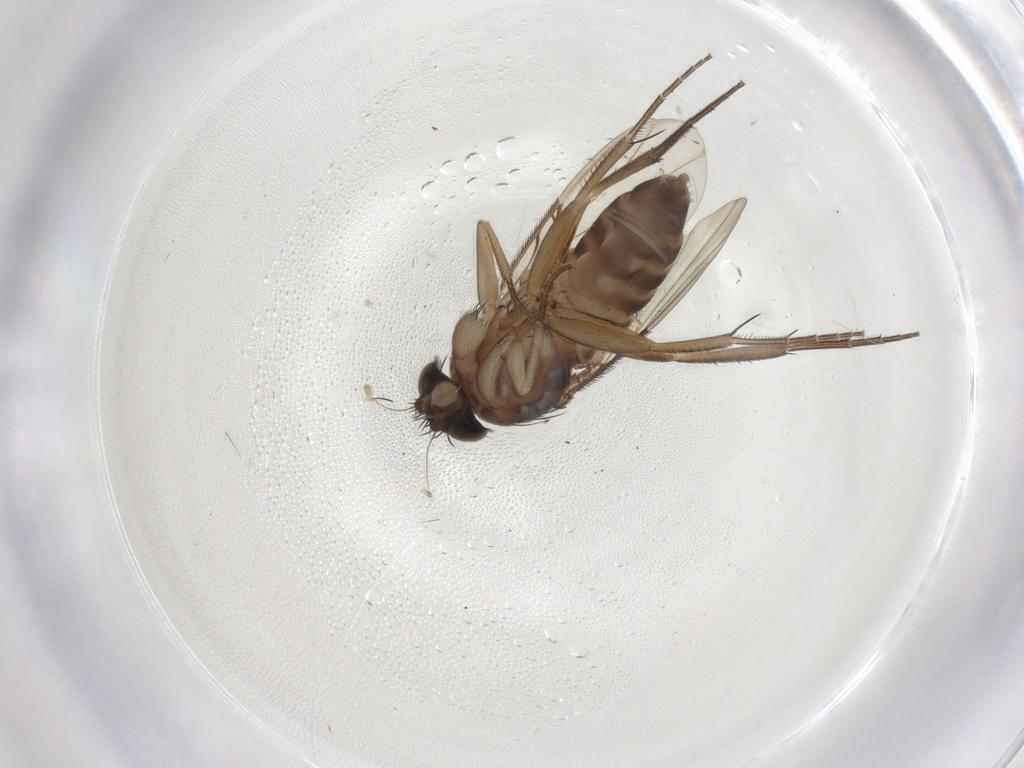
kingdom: Animalia
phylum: Arthropoda
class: Insecta
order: Diptera
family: Phoridae
